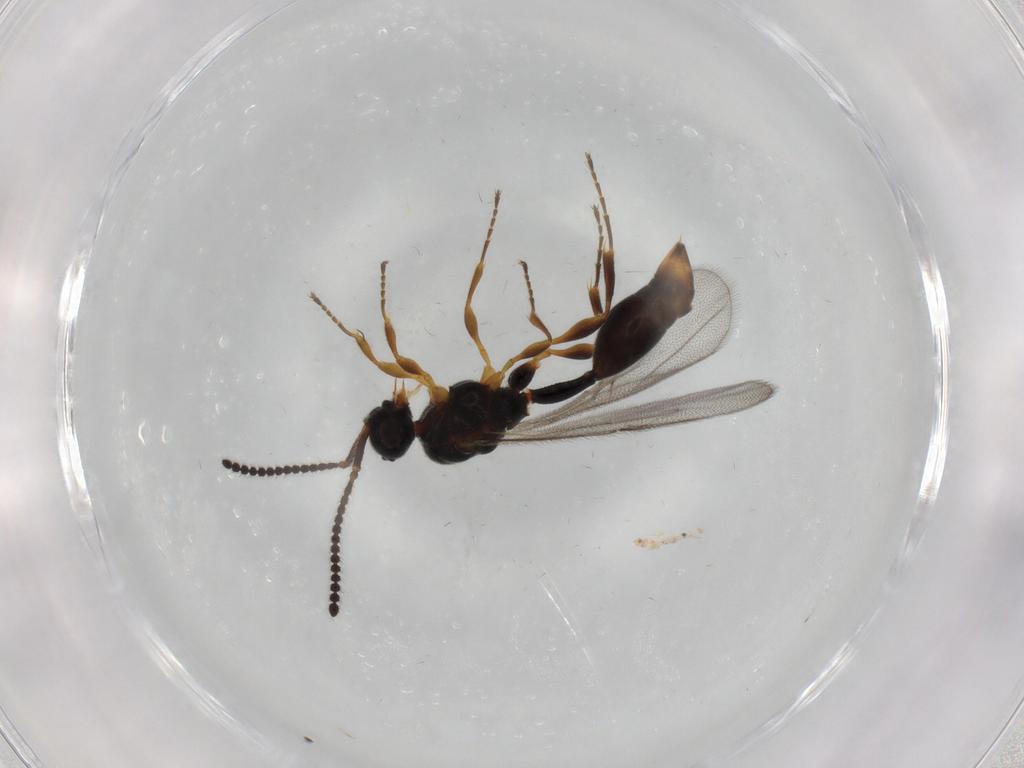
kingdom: Animalia
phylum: Arthropoda
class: Insecta
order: Hymenoptera
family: Diapriidae
